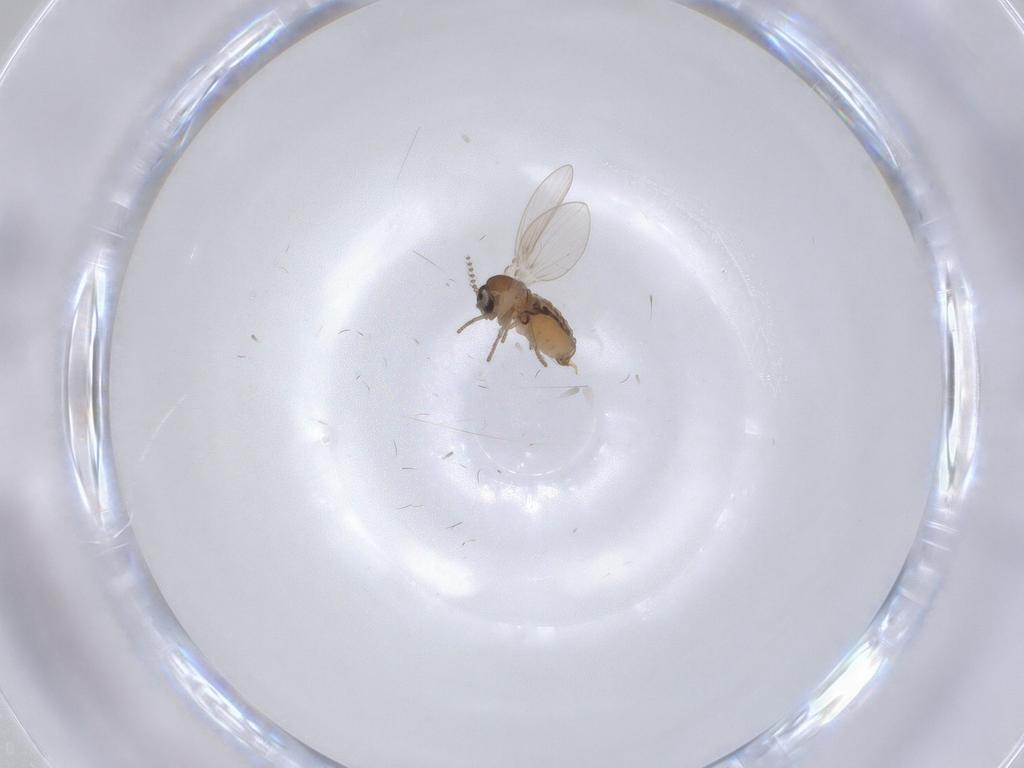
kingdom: Animalia
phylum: Arthropoda
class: Insecta
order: Diptera
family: Psychodidae
